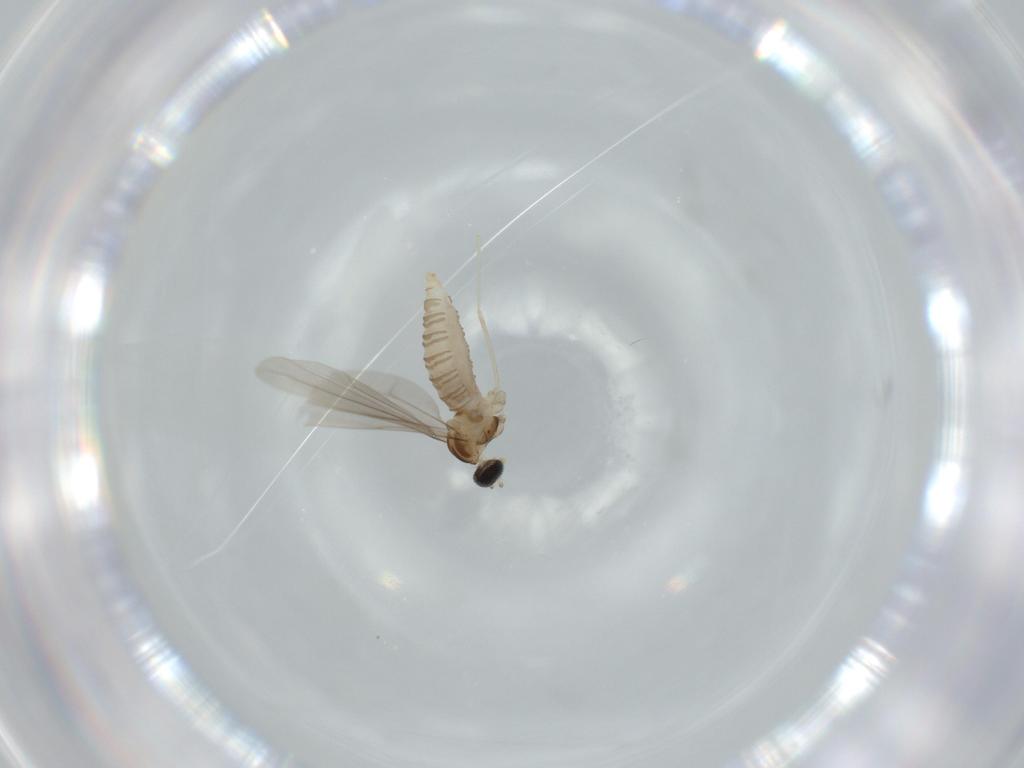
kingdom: Animalia
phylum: Arthropoda
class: Insecta
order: Diptera
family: Cecidomyiidae
